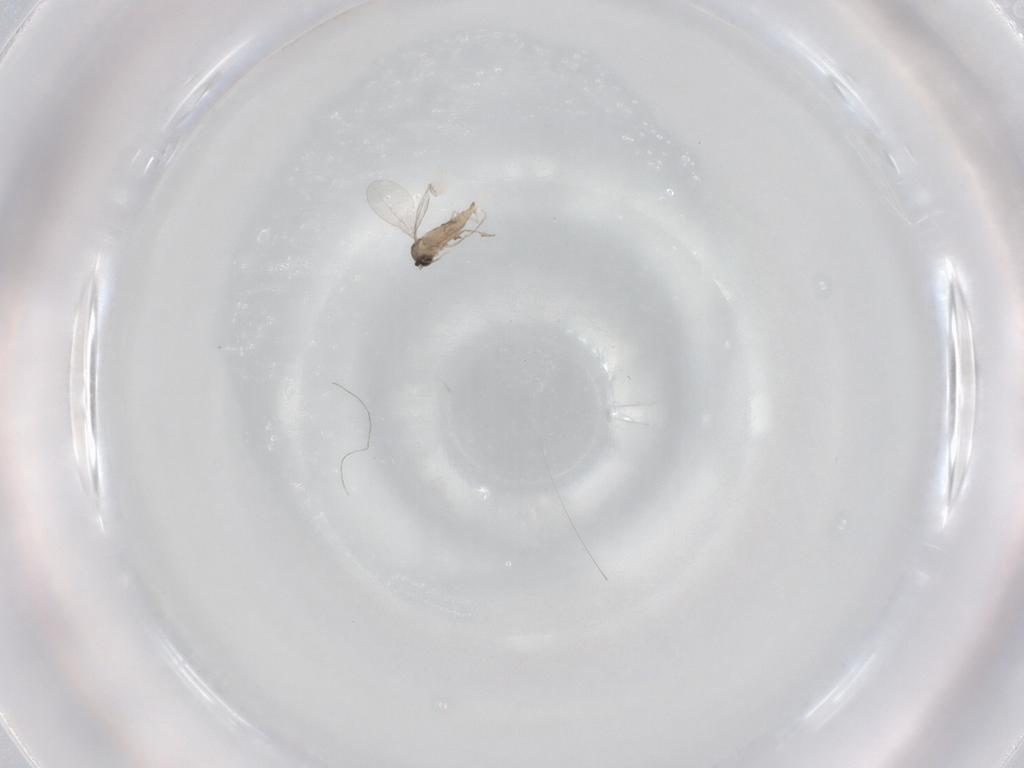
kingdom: Animalia
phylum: Arthropoda
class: Insecta
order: Diptera
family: Cecidomyiidae
